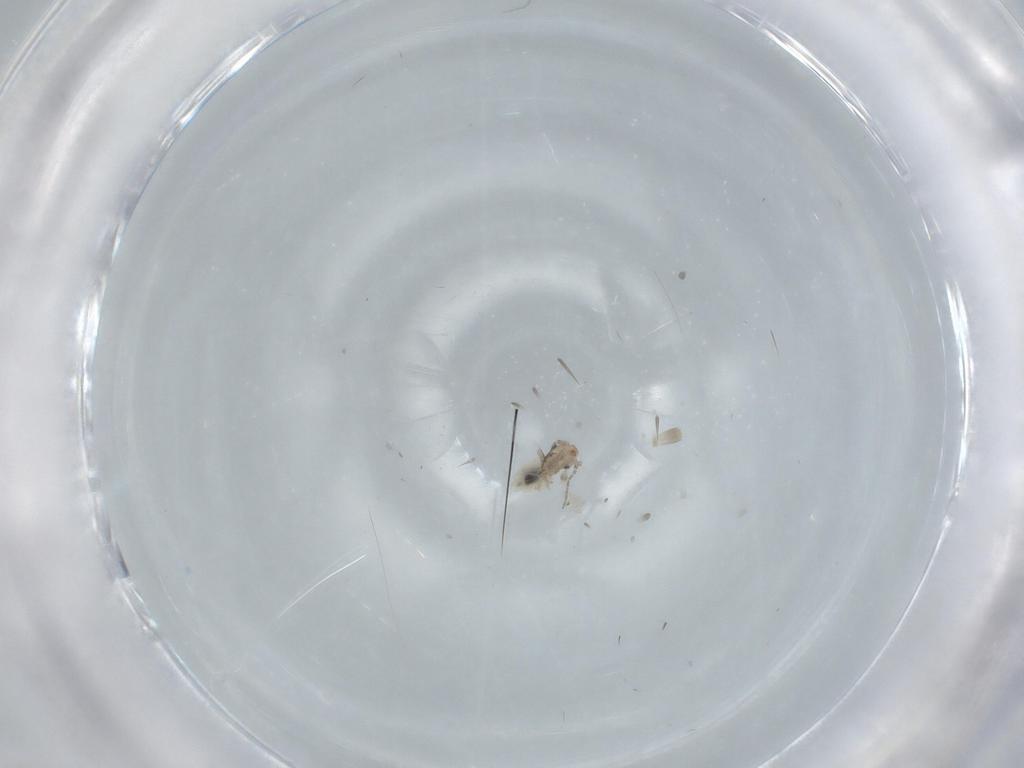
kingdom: Animalia
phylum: Arthropoda
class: Insecta
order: Psocodea
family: Lepidopsocidae
